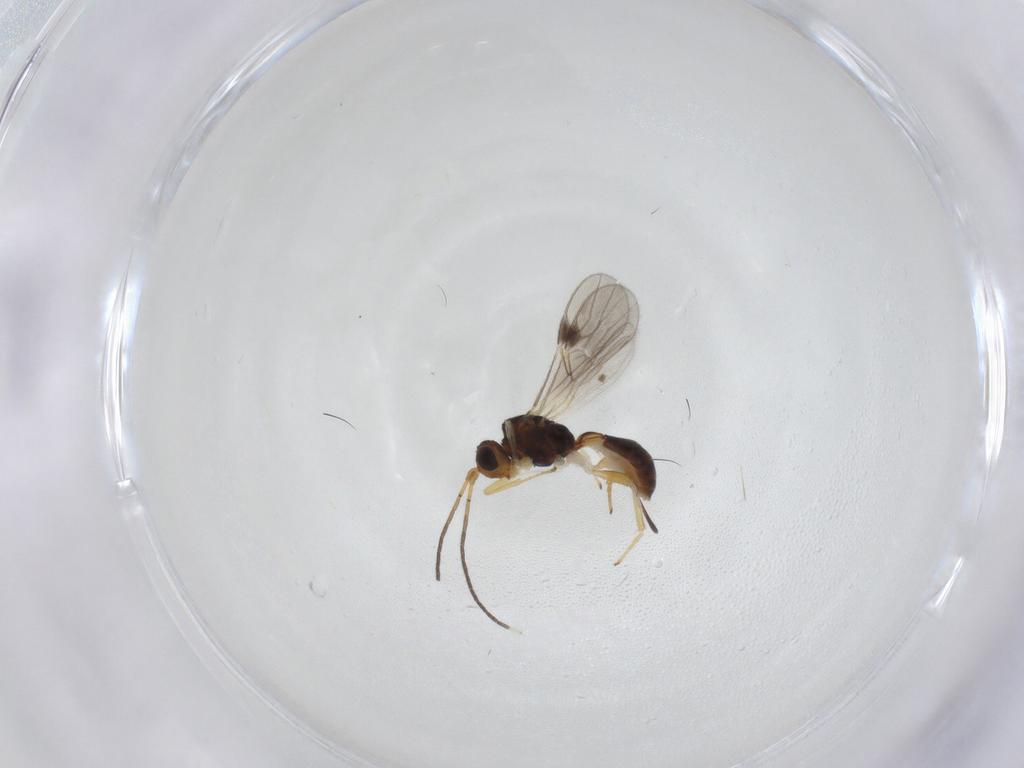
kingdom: Animalia
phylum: Arthropoda
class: Insecta
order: Hymenoptera
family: Braconidae
